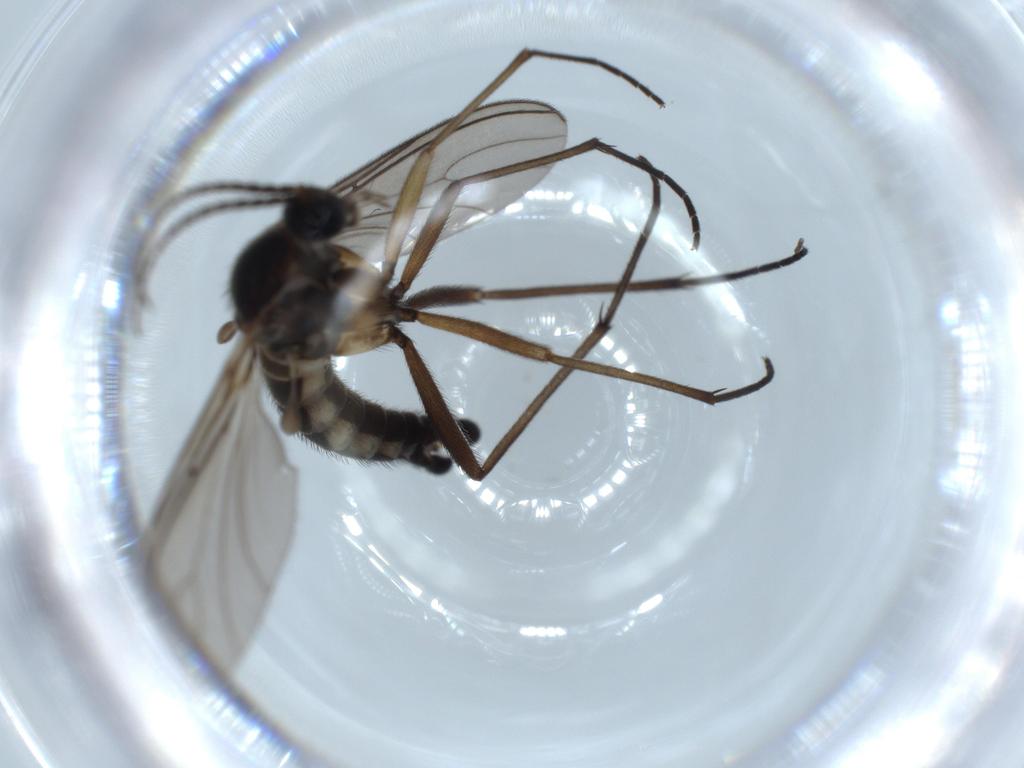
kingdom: Animalia
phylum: Arthropoda
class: Insecta
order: Diptera
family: Sciaridae
